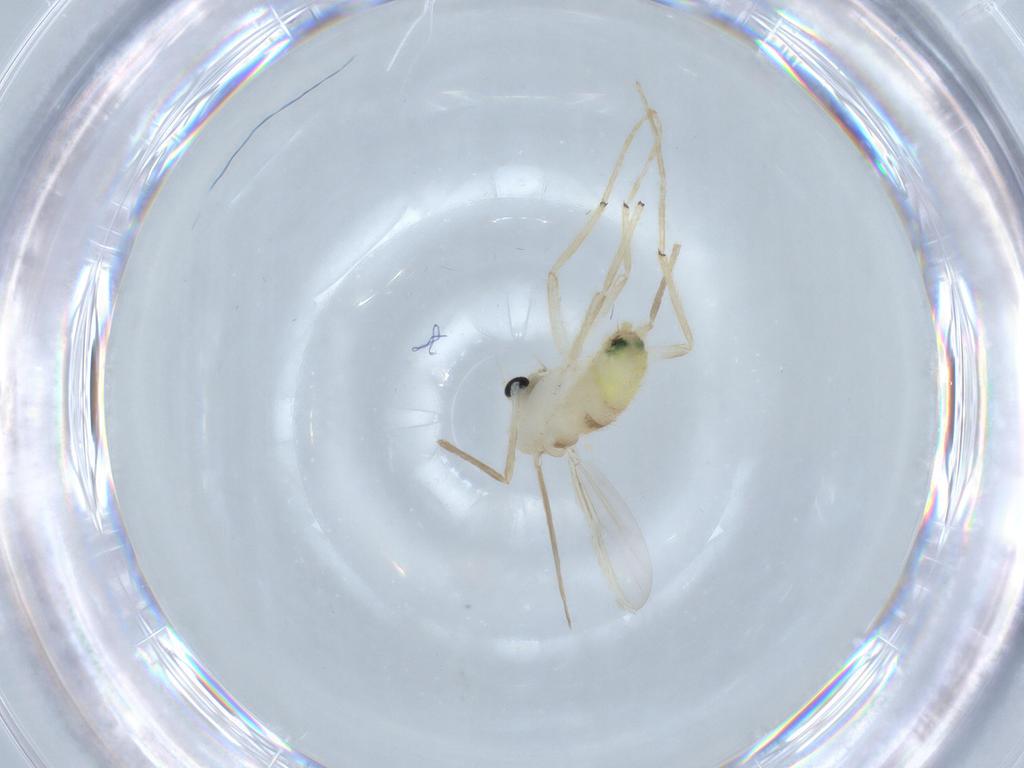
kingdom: Animalia
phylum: Arthropoda
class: Insecta
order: Diptera
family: Chironomidae
